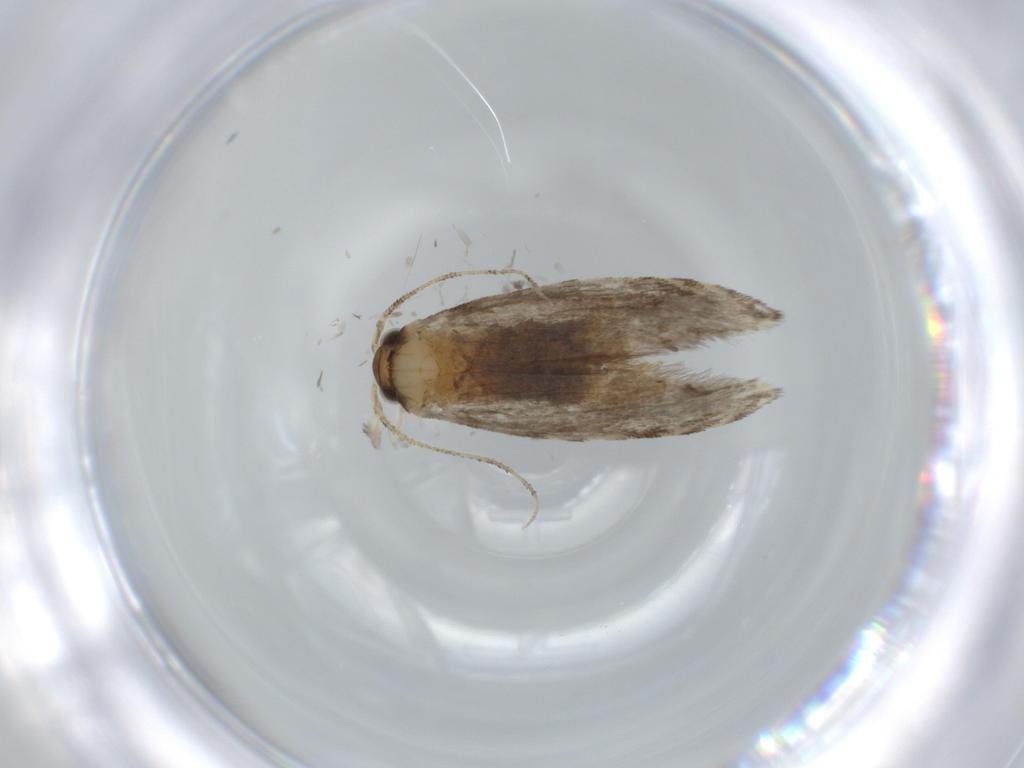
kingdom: Animalia
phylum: Arthropoda
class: Insecta
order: Lepidoptera
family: Tineidae
